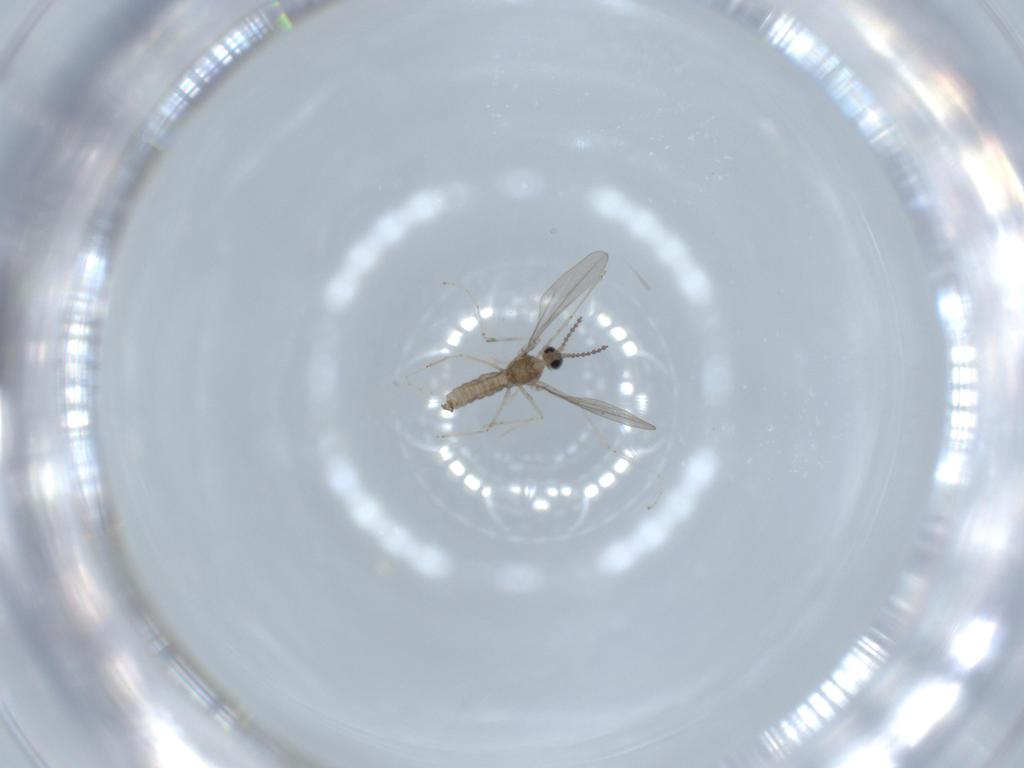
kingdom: Animalia
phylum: Arthropoda
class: Insecta
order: Diptera
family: Cecidomyiidae
